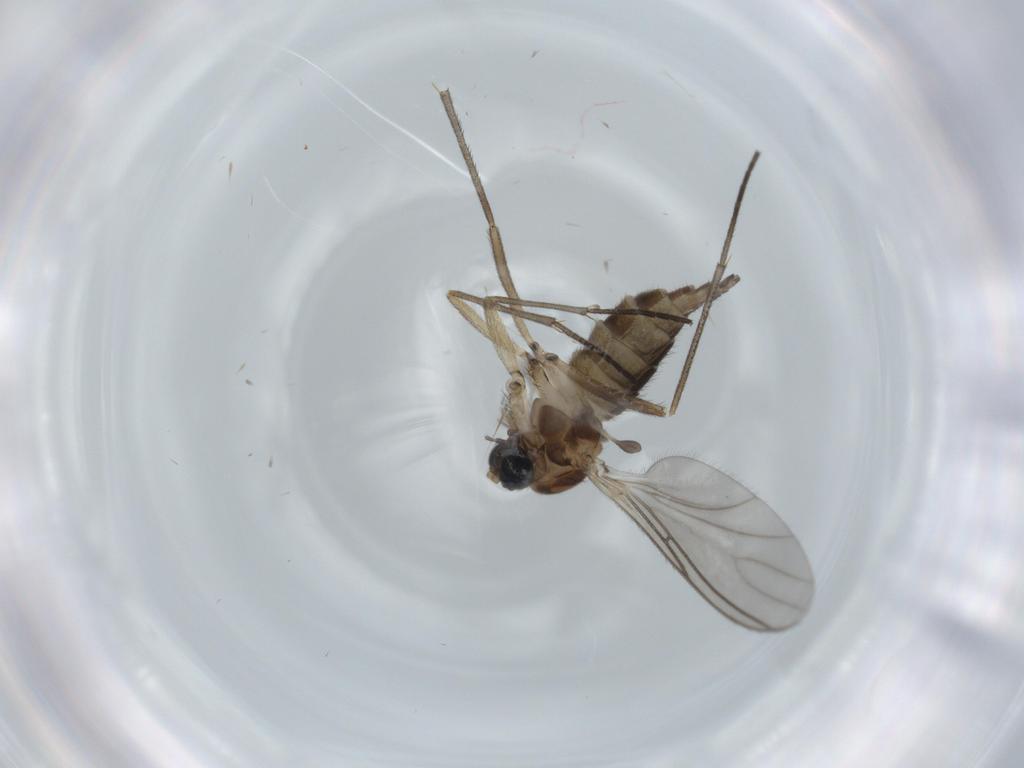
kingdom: Animalia
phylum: Arthropoda
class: Insecta
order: Diptera
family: Sciaridae
